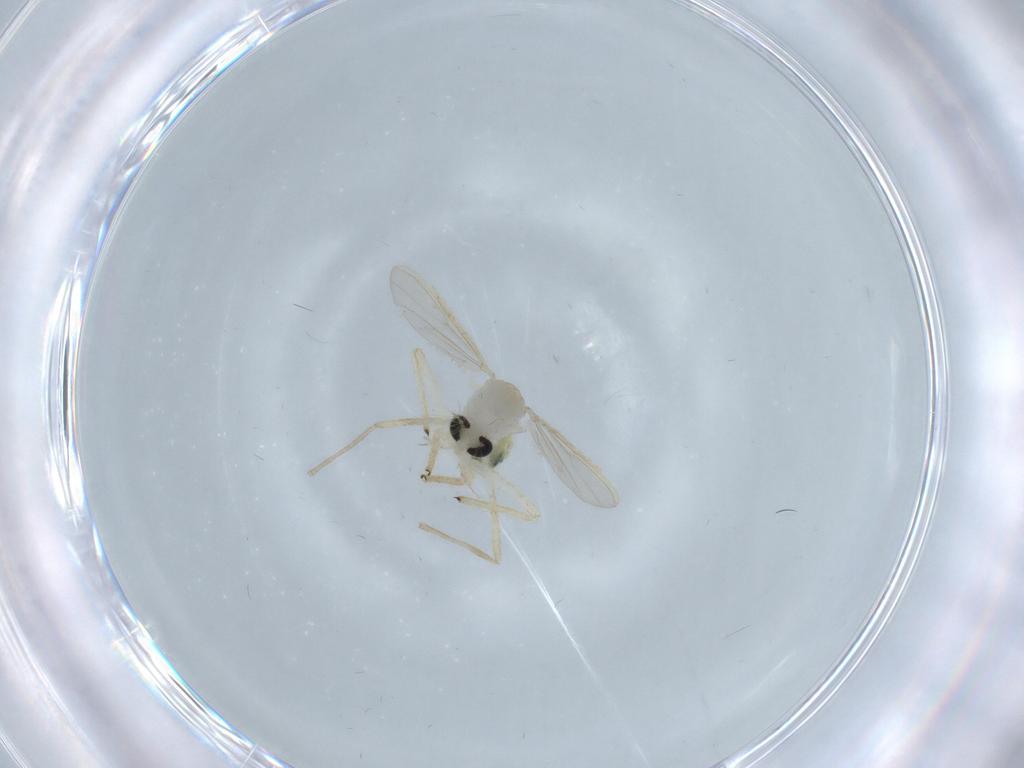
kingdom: Animalia
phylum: Arthropoda
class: Insecta
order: Diptera
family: Chironomidae
